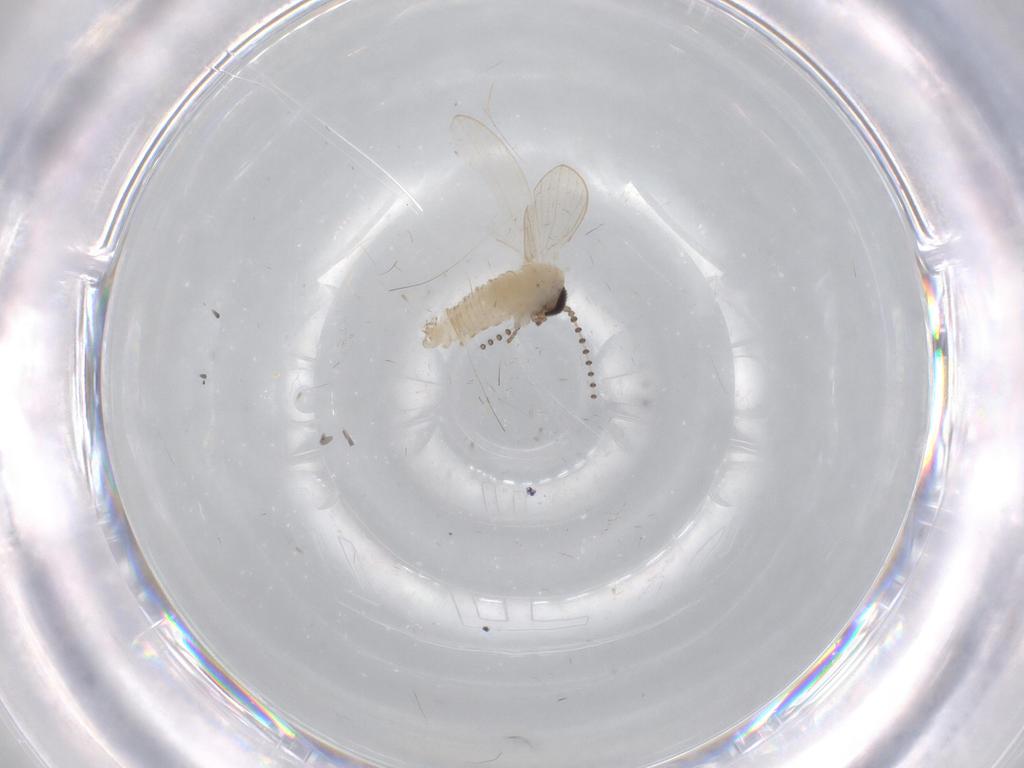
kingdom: Animalia
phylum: Arthropoda
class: Insecta
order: Diptera
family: Psychodidae
